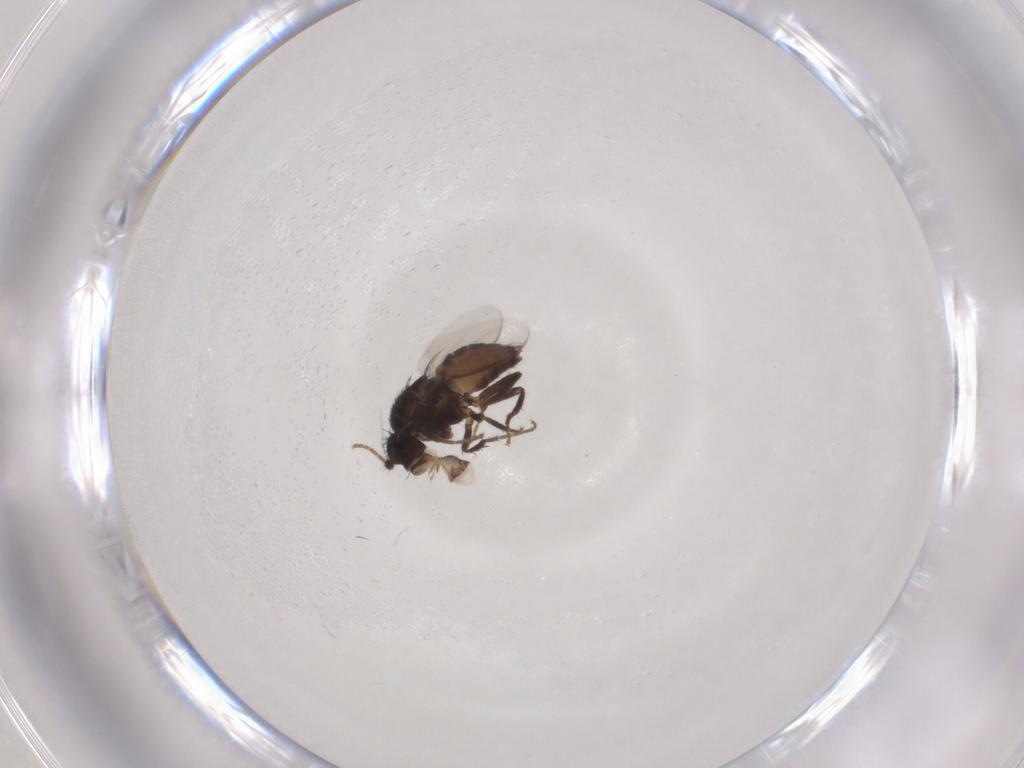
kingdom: Animalia
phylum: Arthropoda
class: Insecta
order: Diptera
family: Sphaeroceridae
